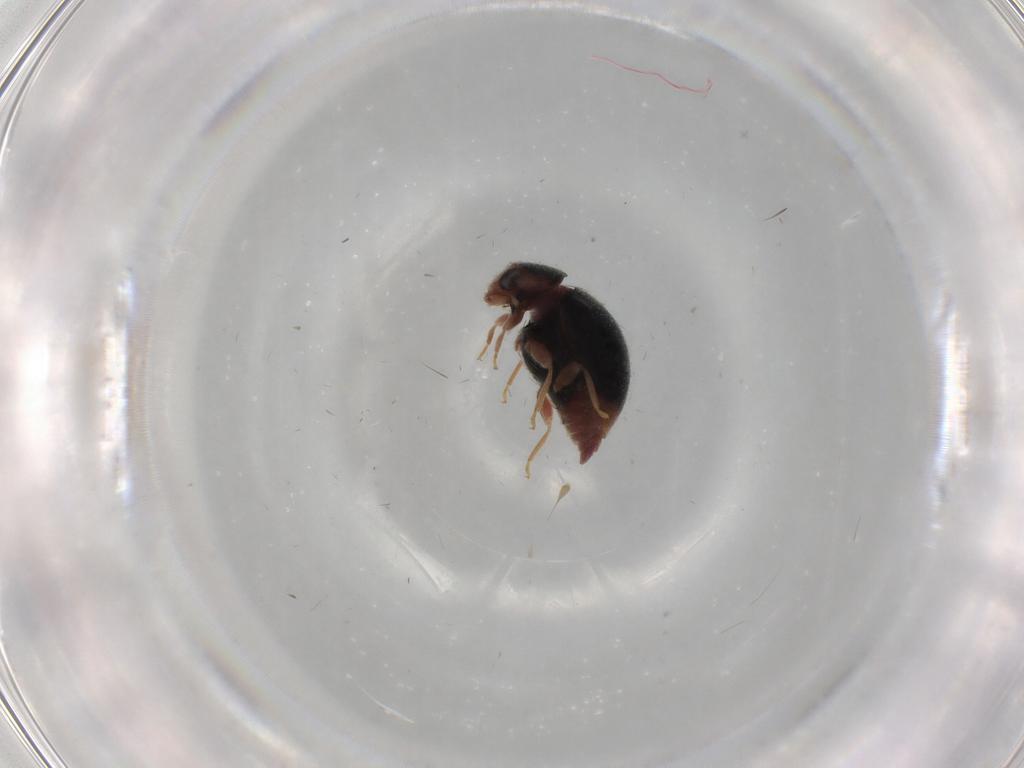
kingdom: Animalia
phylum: Arthropoda
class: Insecta
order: Coleoptera
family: Coccinellidae
